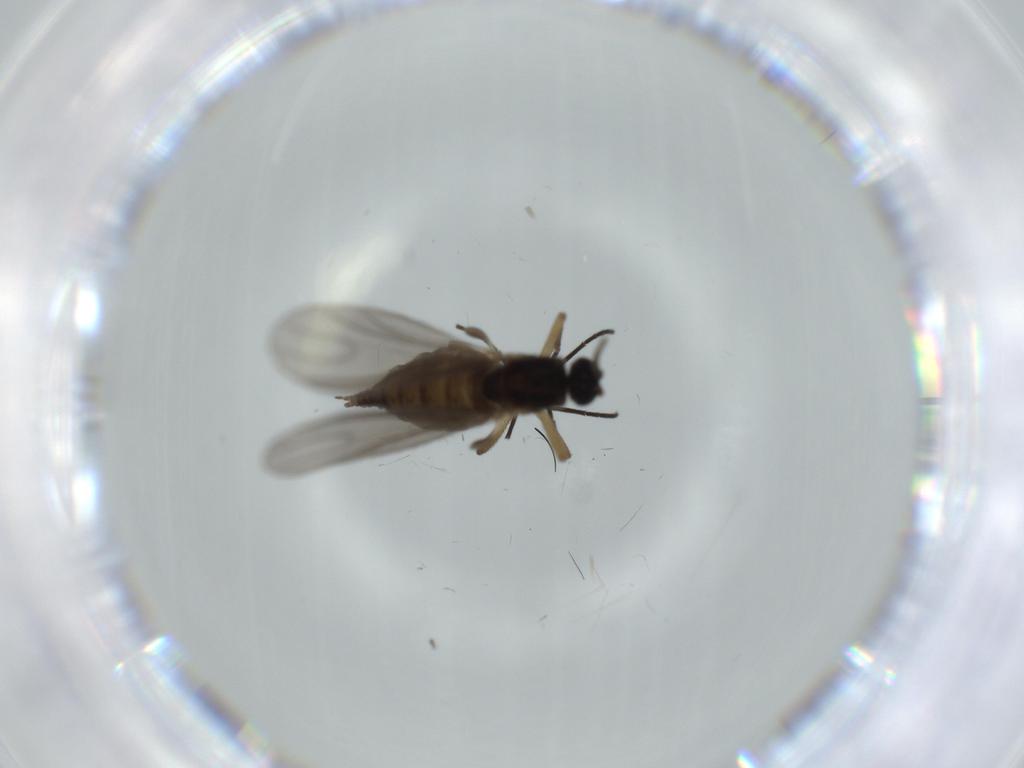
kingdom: Animalia
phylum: Arthropoda
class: Insecta
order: Diptera
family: Sciaridae
